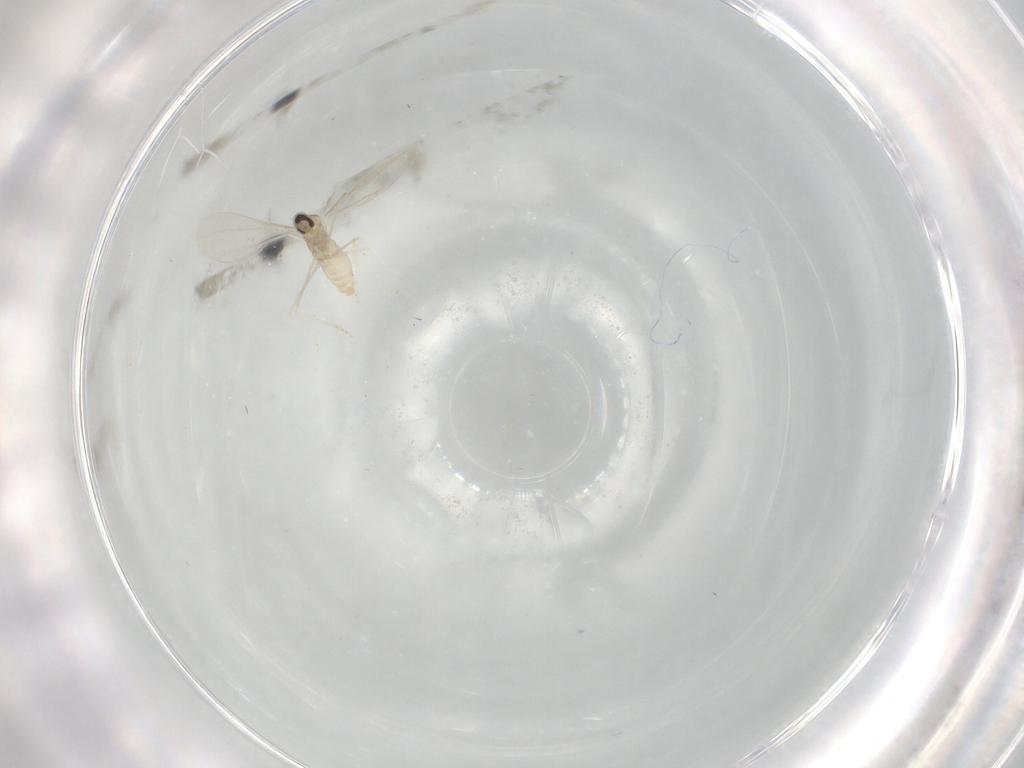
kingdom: Animalia
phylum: Arthropoda
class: Insecta
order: Diptera
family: Cecidomyiidae
